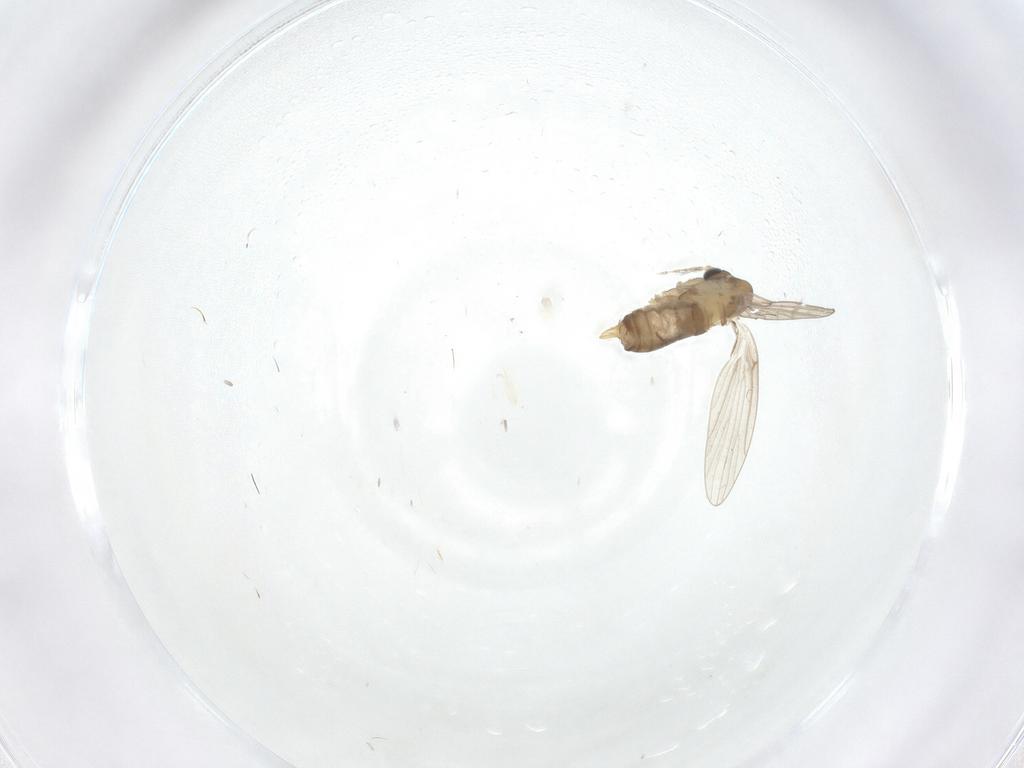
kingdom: Animalia
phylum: Arthropoda
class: Insecta
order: Diptera
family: Psychodidae
